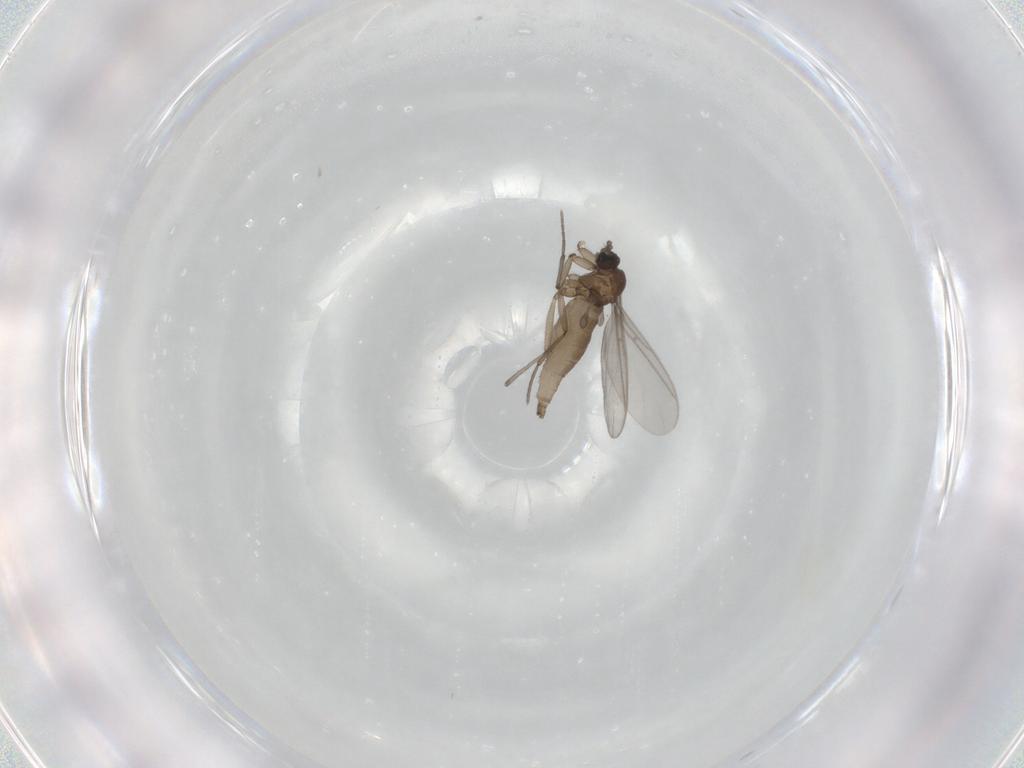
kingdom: Animalia
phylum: Arthropoda
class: Insecta
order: Diptera
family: Sciaridae
